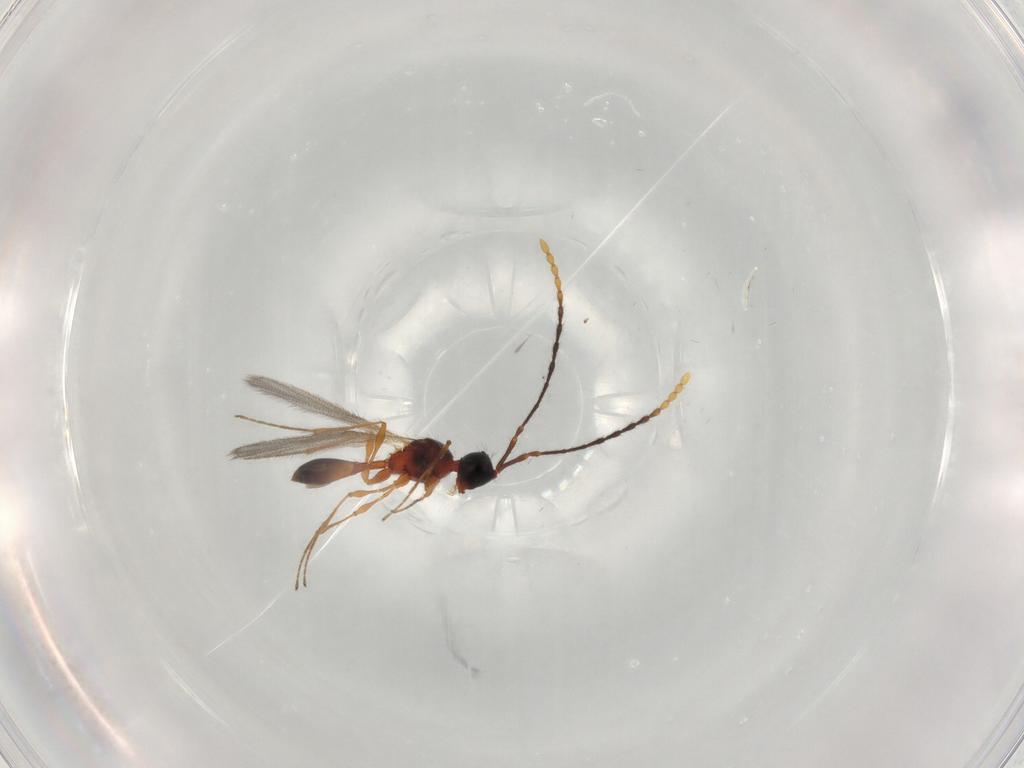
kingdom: Animalia
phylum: Arthropoda
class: Insecta
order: Hymenoptera
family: Diapriidae
